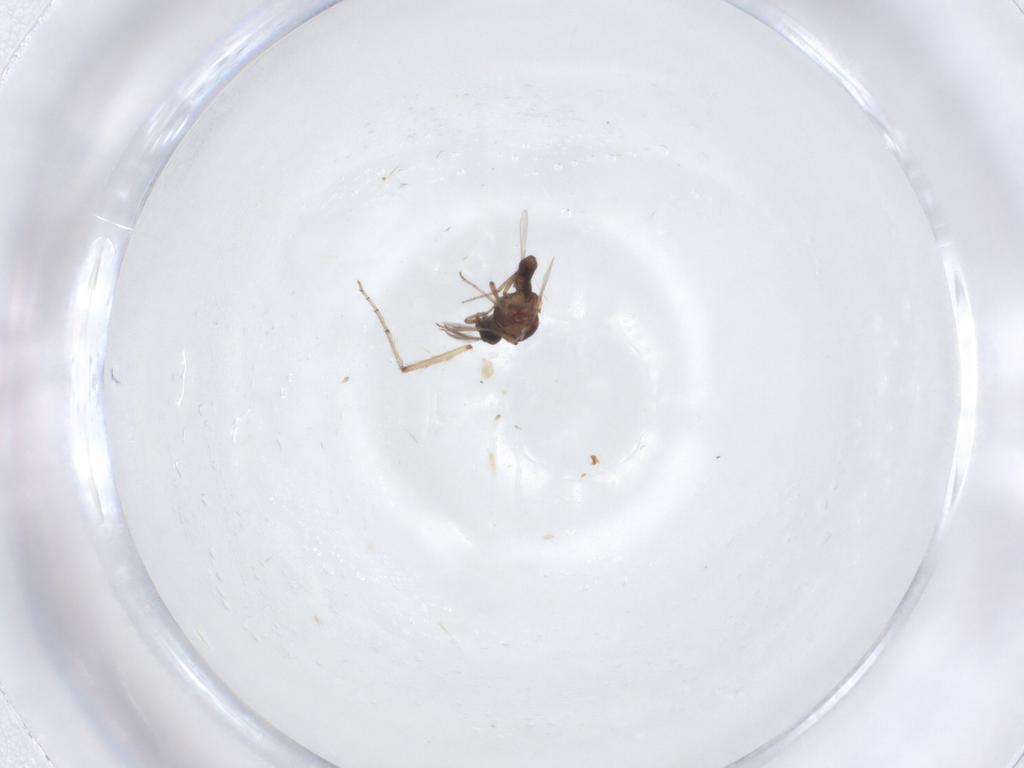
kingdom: Animalia
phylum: Arthropoda
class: Insecta
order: Diptera
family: Ceratopogonidae
